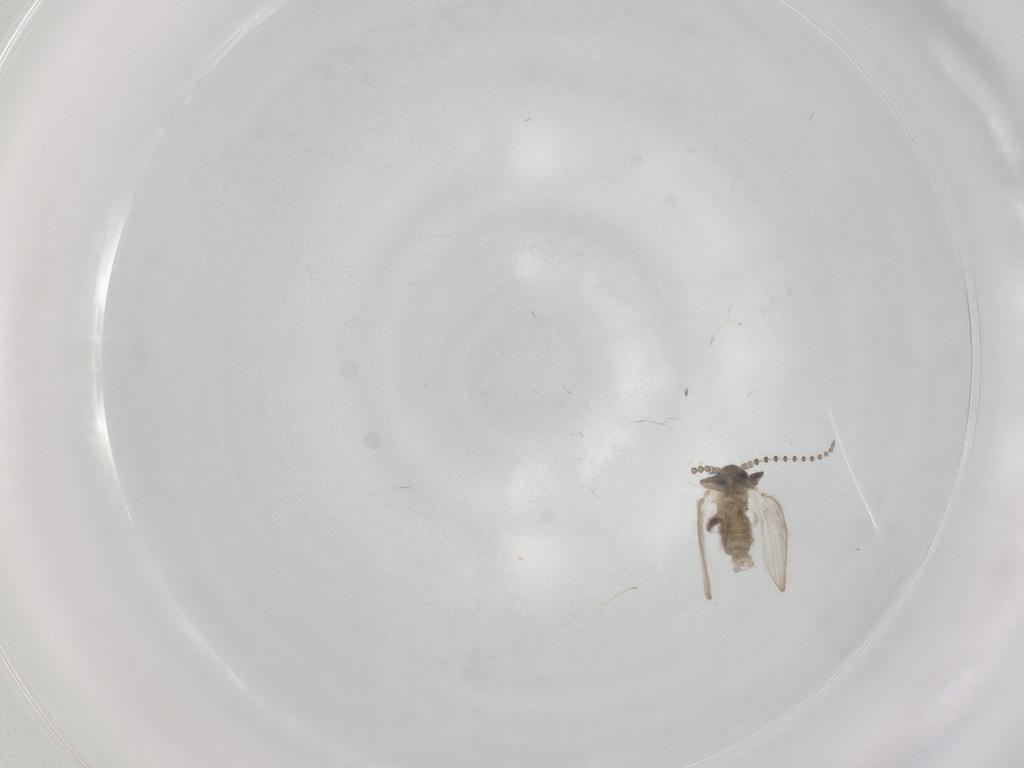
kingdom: Animalia
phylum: Arthropoda
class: Insecta
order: Diptera
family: Psychodidae
